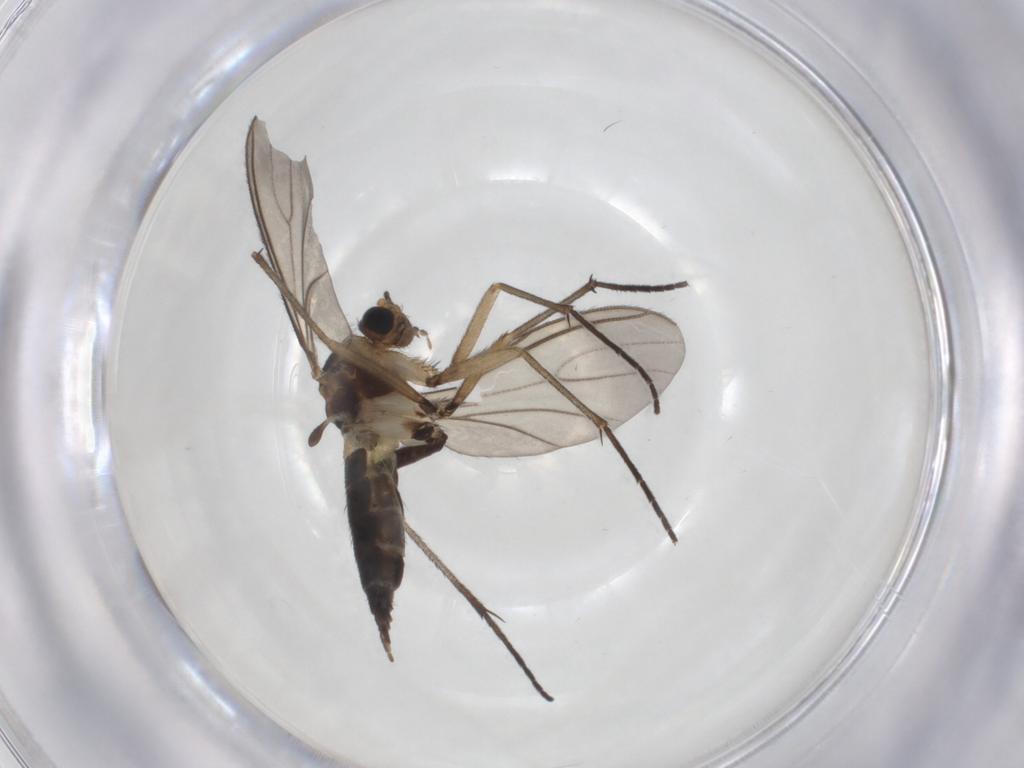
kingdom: Animalia
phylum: Arthropoda
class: Insecta
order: Diptera
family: Sciaridae
